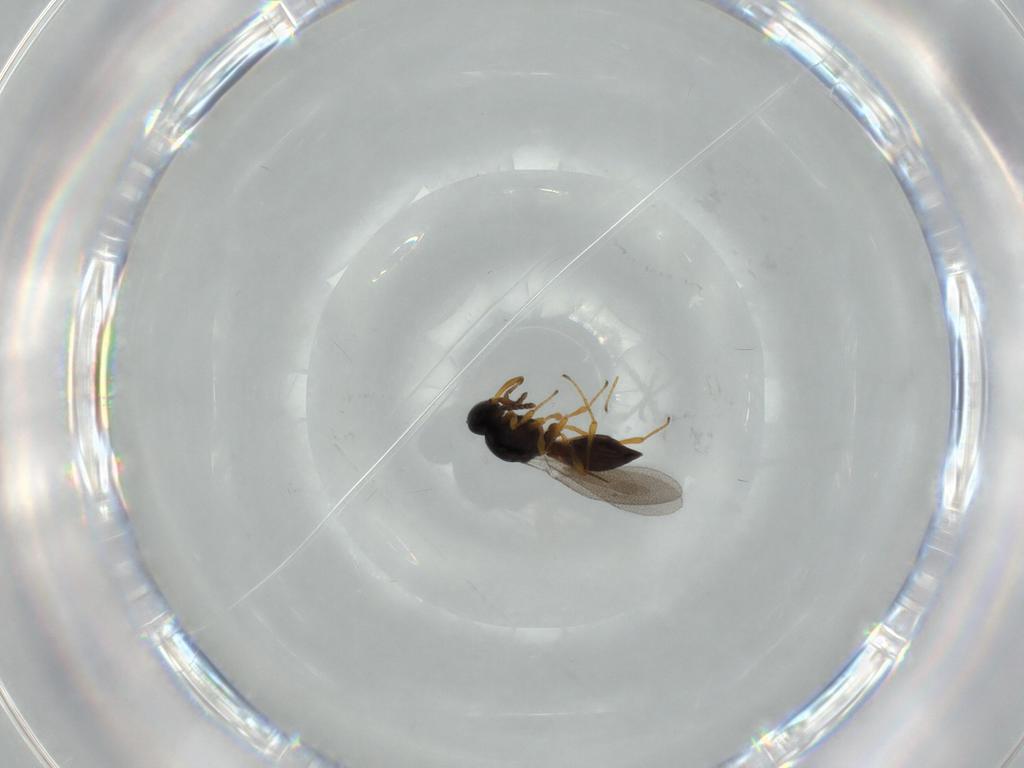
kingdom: Animalia
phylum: Arthropoda
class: Insecta
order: Hymenoptera
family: Platygastridae
